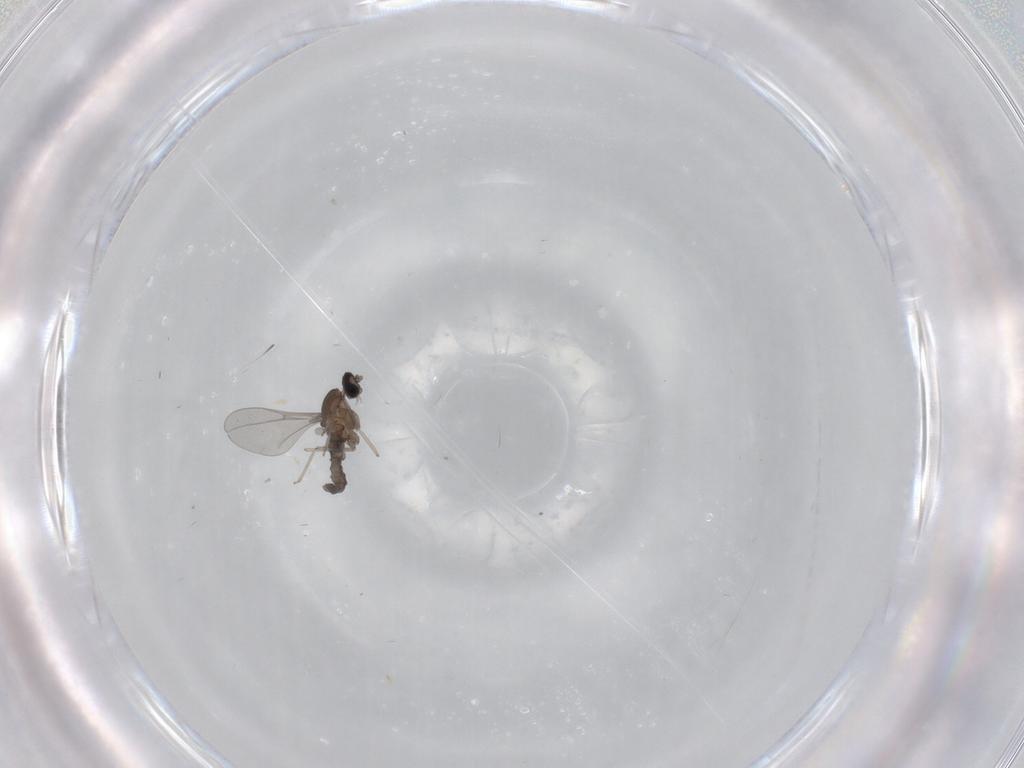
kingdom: Animalia
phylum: Arthropoda
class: Insecta
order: Diptera
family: Cecidomyiidae
